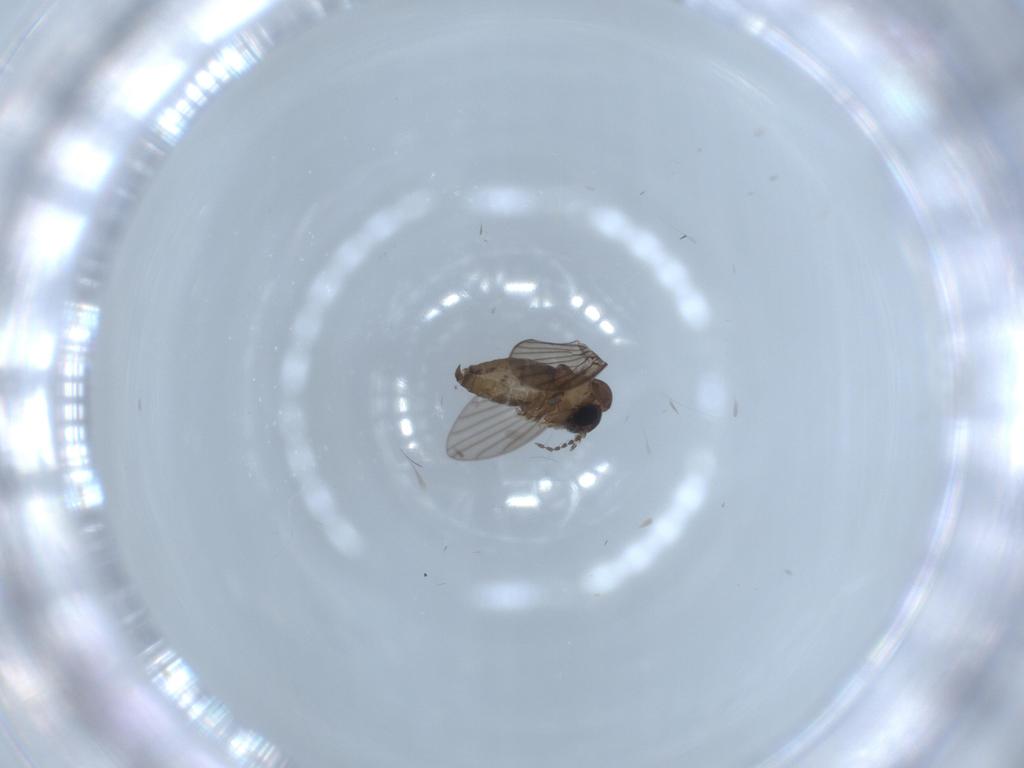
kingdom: Animalia
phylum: Arthropoda
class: Insecta
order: Diptera
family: Psychodidae
